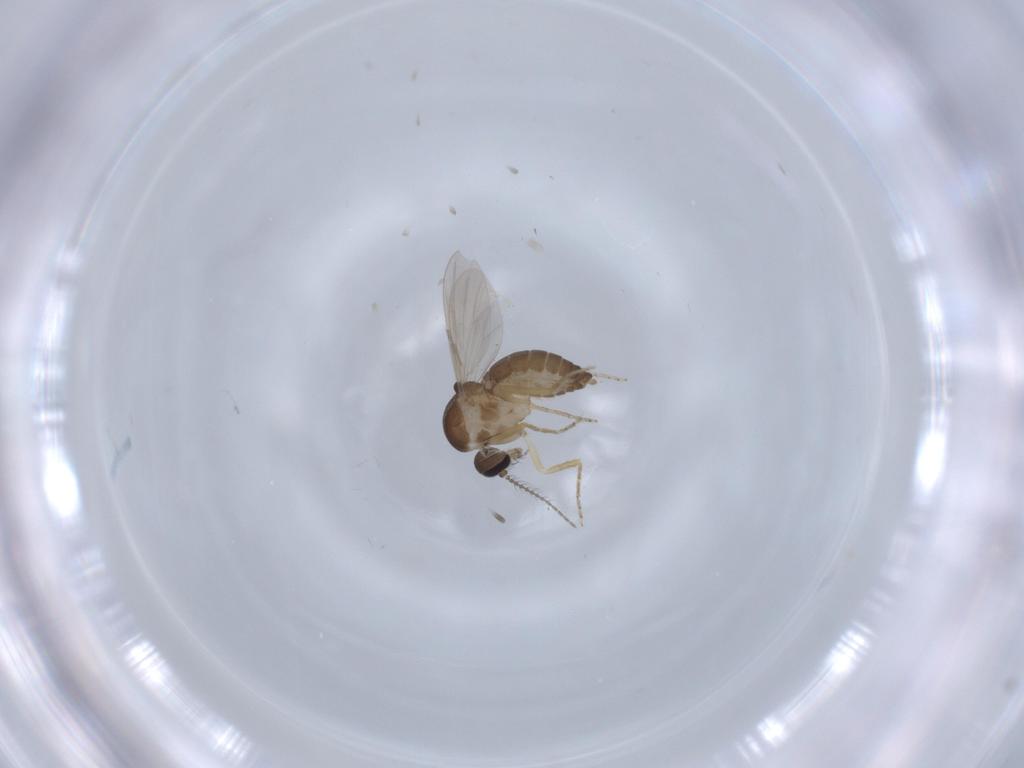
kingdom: Animalia
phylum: Arthropoda
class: Insecta
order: Diptera
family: Ceratopogonidae
